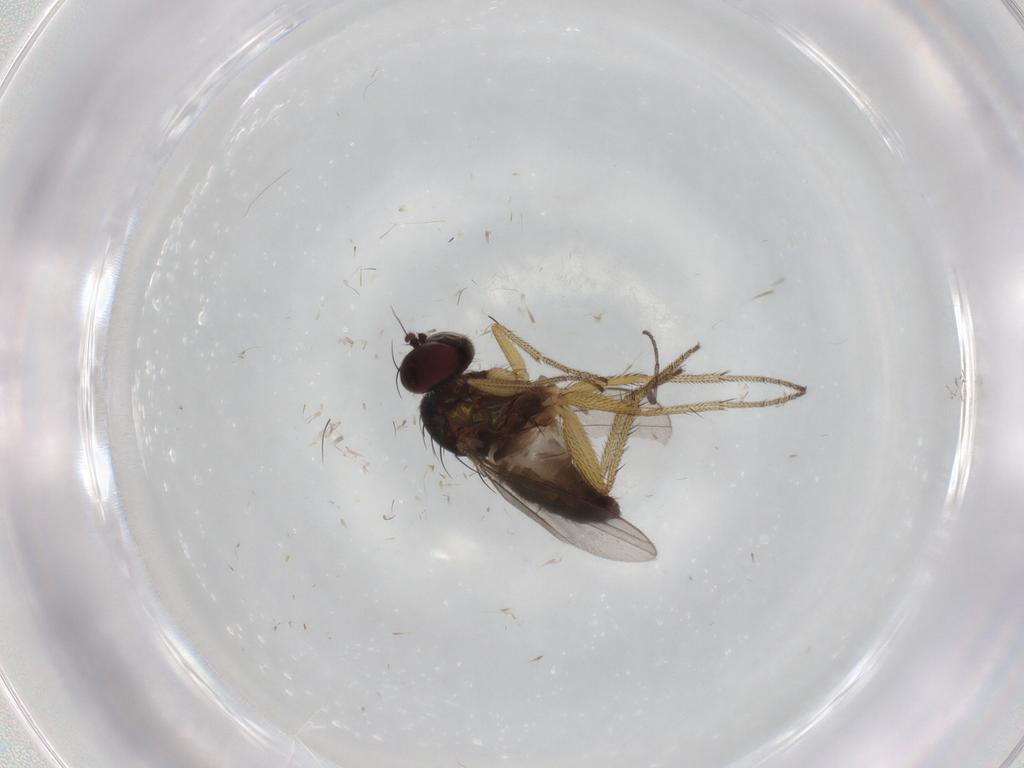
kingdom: Animalia
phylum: Arthropoda
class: Insecta
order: Diptera
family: Dolichopodidae
